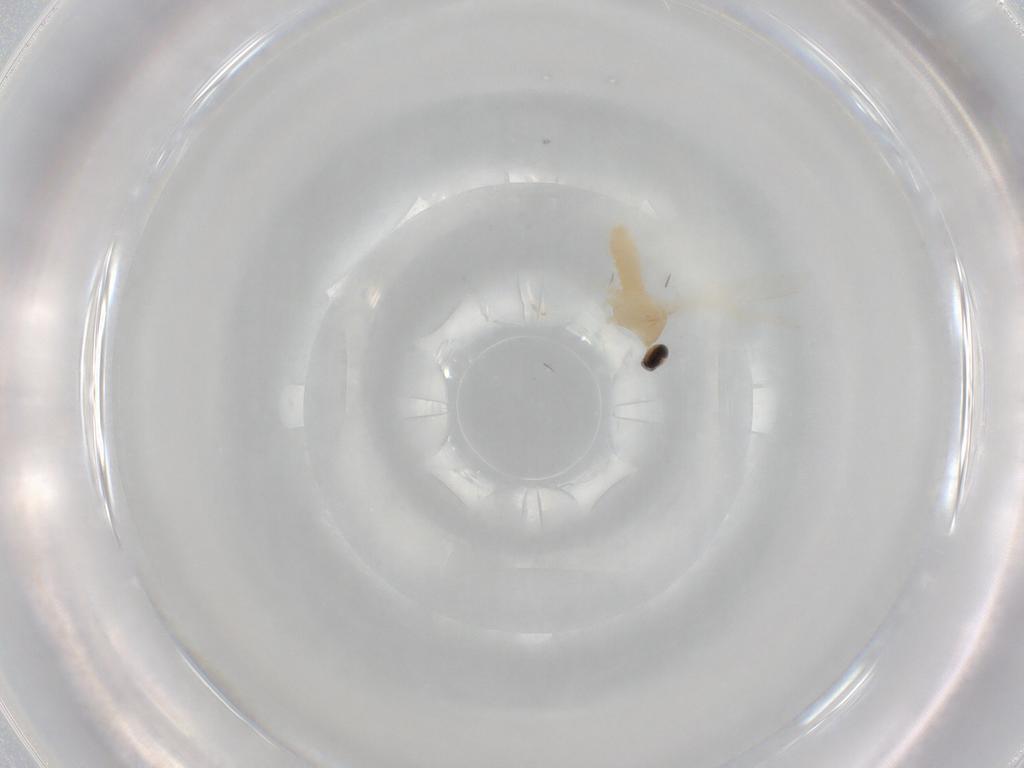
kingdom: Animalia
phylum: Arthropoda
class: Insecta
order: Diptera
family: Cecidomyiidae
